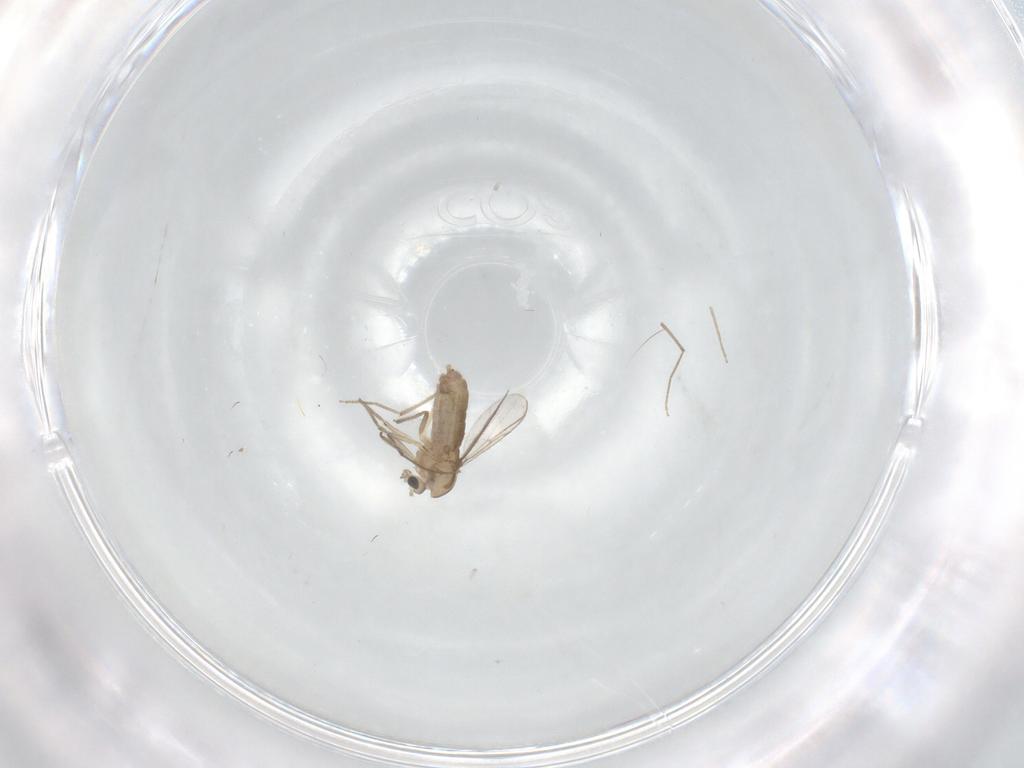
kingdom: Animalia
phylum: Arthropoda
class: Insecta
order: Diptera
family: Chironomidae
